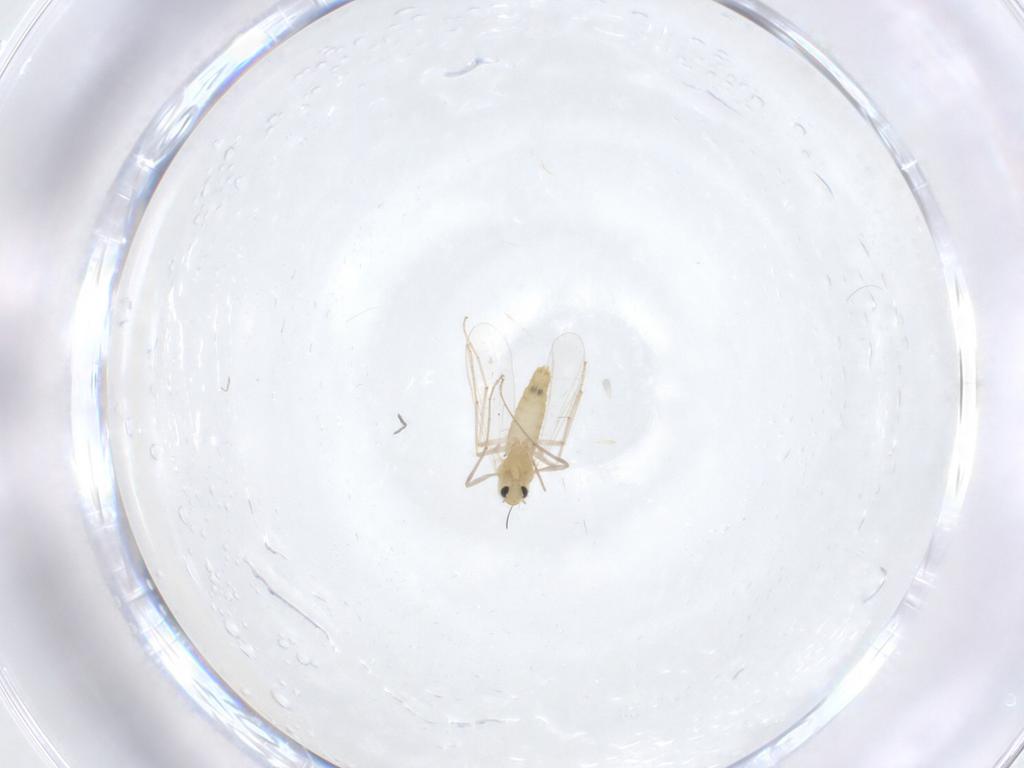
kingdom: Animalia
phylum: Arthropoda
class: Insecta
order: Diptera
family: Chironomidae
